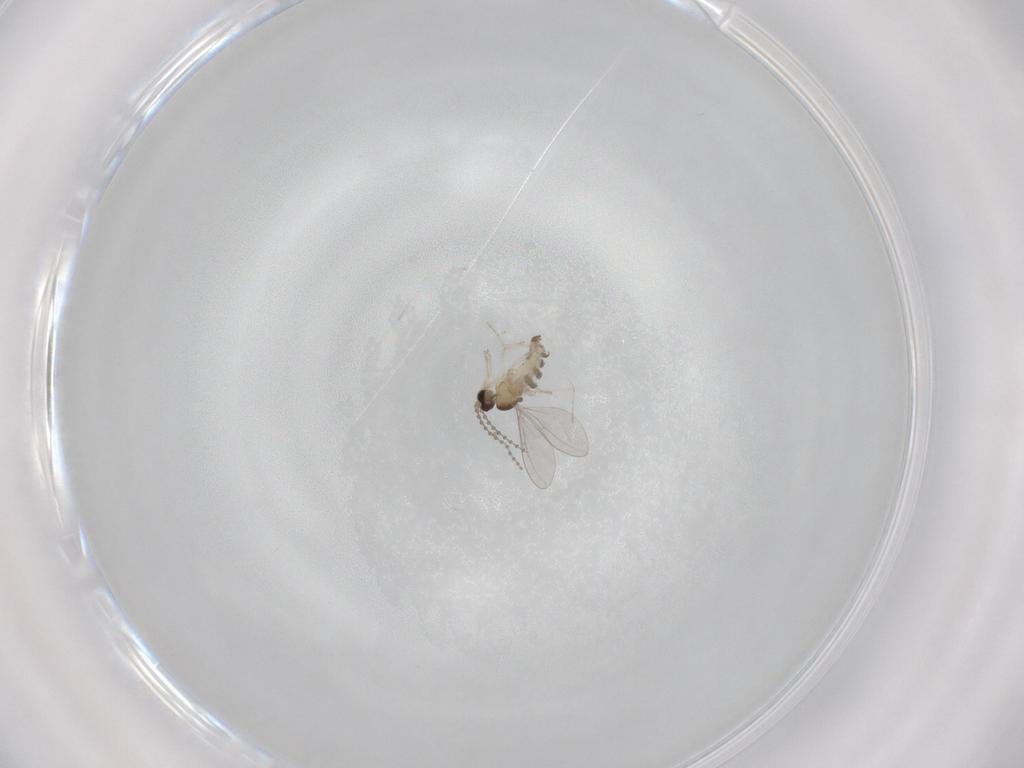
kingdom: Animalia
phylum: Arthropoda
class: Insecta
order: Diptera
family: Cecidomyiidae
